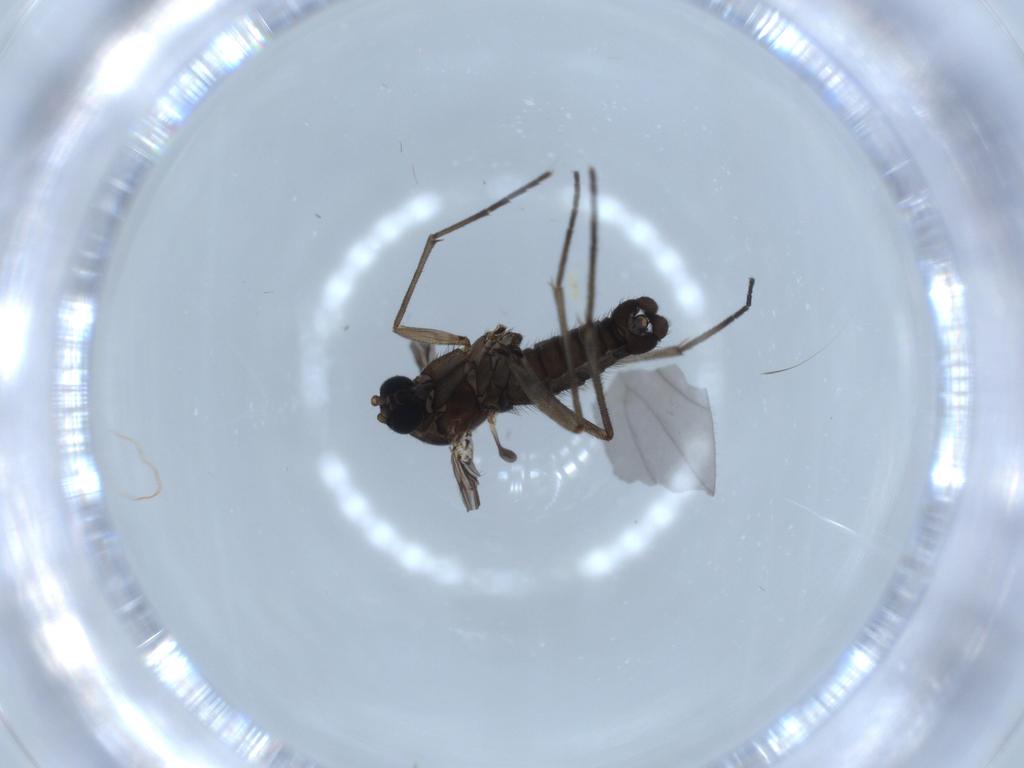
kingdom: Animalia
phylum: Arthropoda
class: Insecta
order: Diptera
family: Sciaridae
